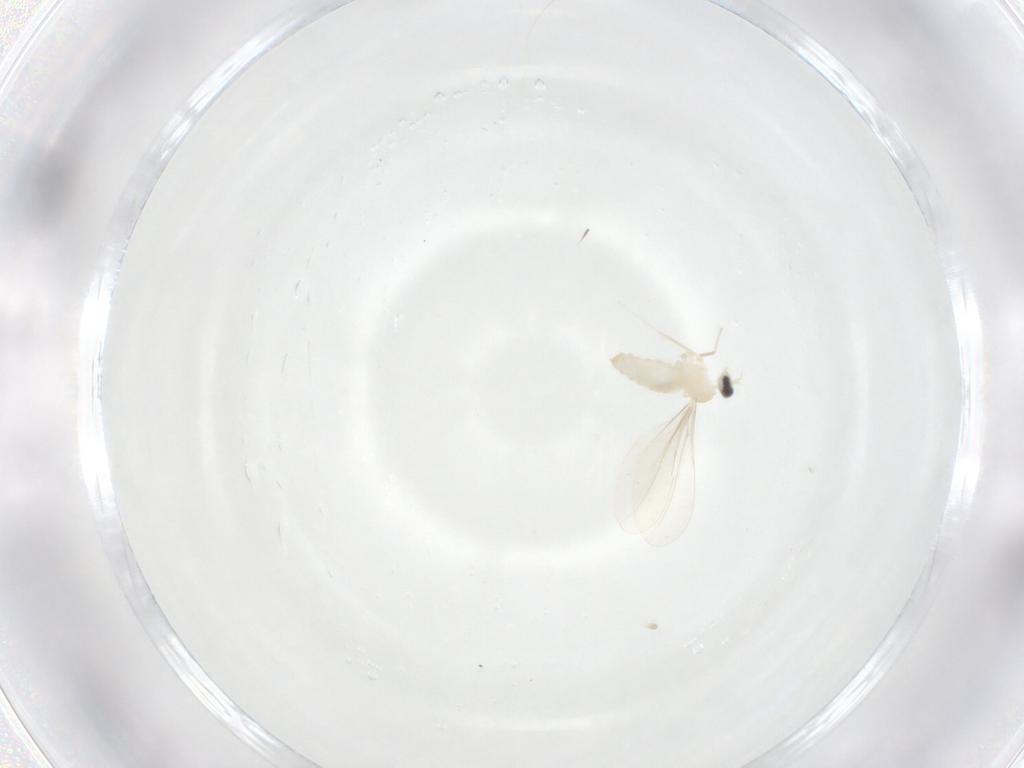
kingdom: Animalia
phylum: Arthropoda
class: Insecta
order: Diptera
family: Cecidomyiidae
